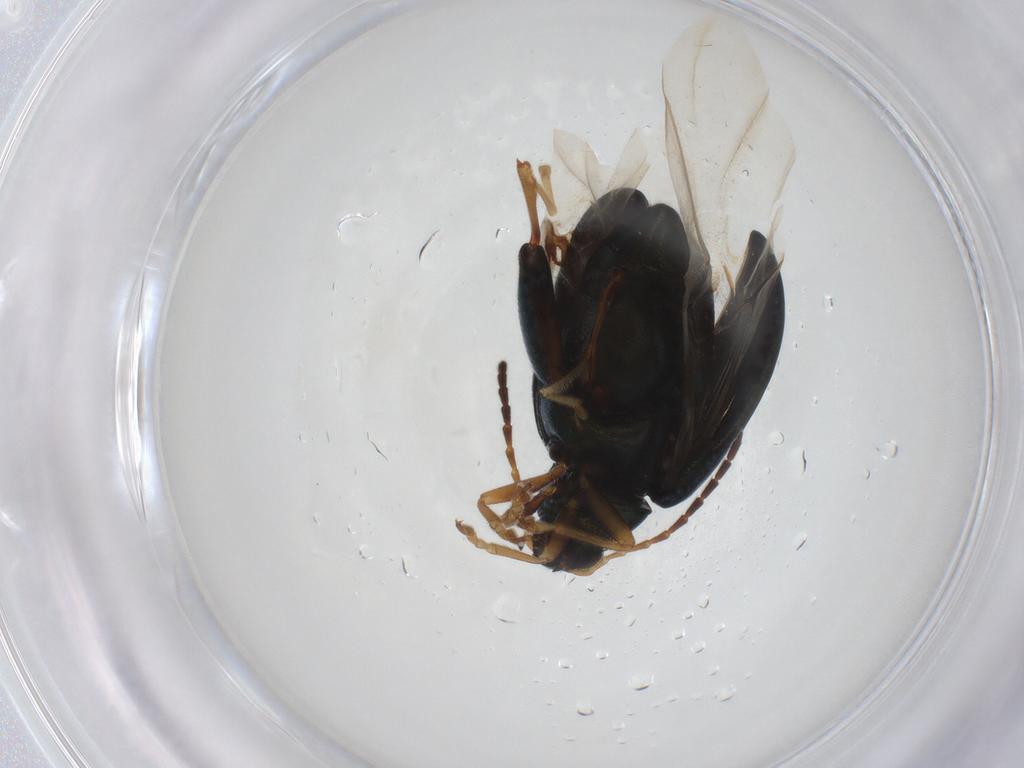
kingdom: Animalia
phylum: Arthropoda
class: Insecta
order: Coleoptera
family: Chrysomelidae
